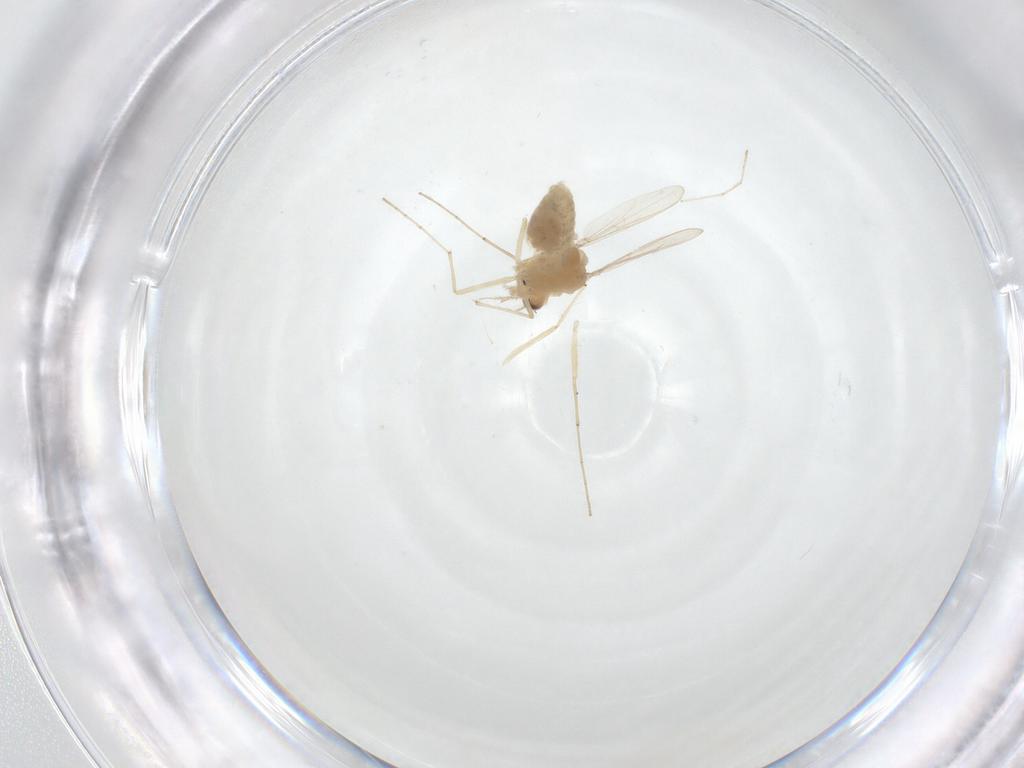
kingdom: Animalia
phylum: Arthropoda
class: Insecta
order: Diptera
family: Chironomidae
